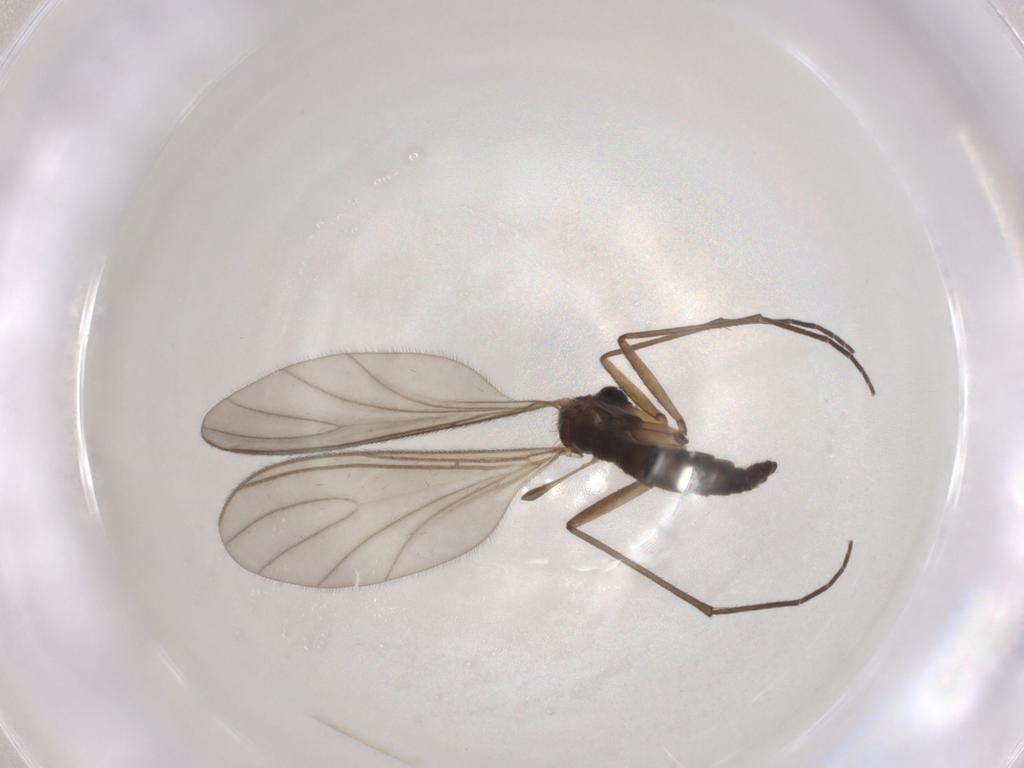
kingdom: Animalia
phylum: Arthropoda
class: Insecta
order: Diptera
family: Sciaridae
